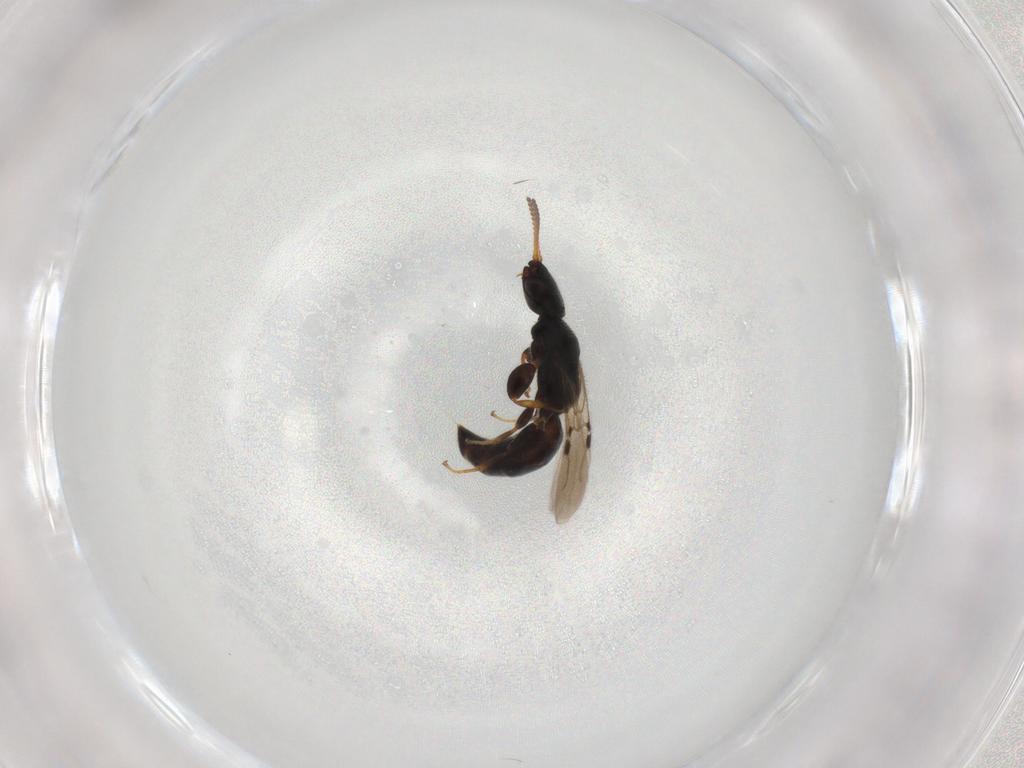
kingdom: Animalia
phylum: Arthropoda
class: Insecta
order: Hymenoptera
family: Bethylidae
